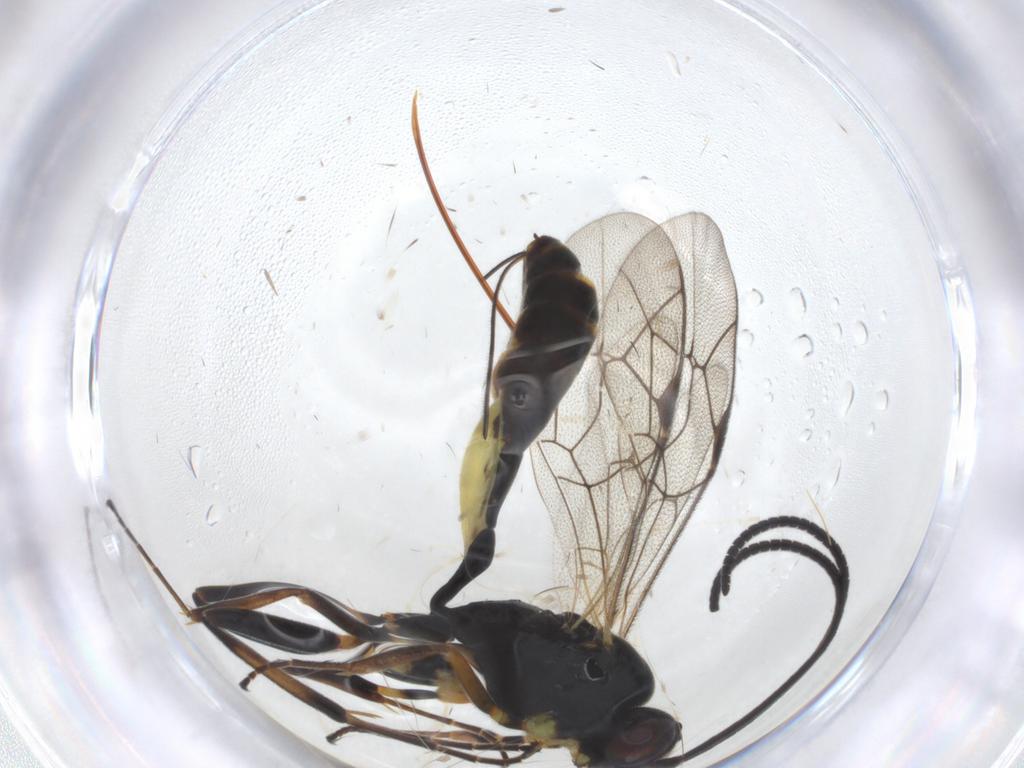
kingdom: Animalia
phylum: Arthropoda
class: Insecta
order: Hymenoptera
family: Ichneumonidae
